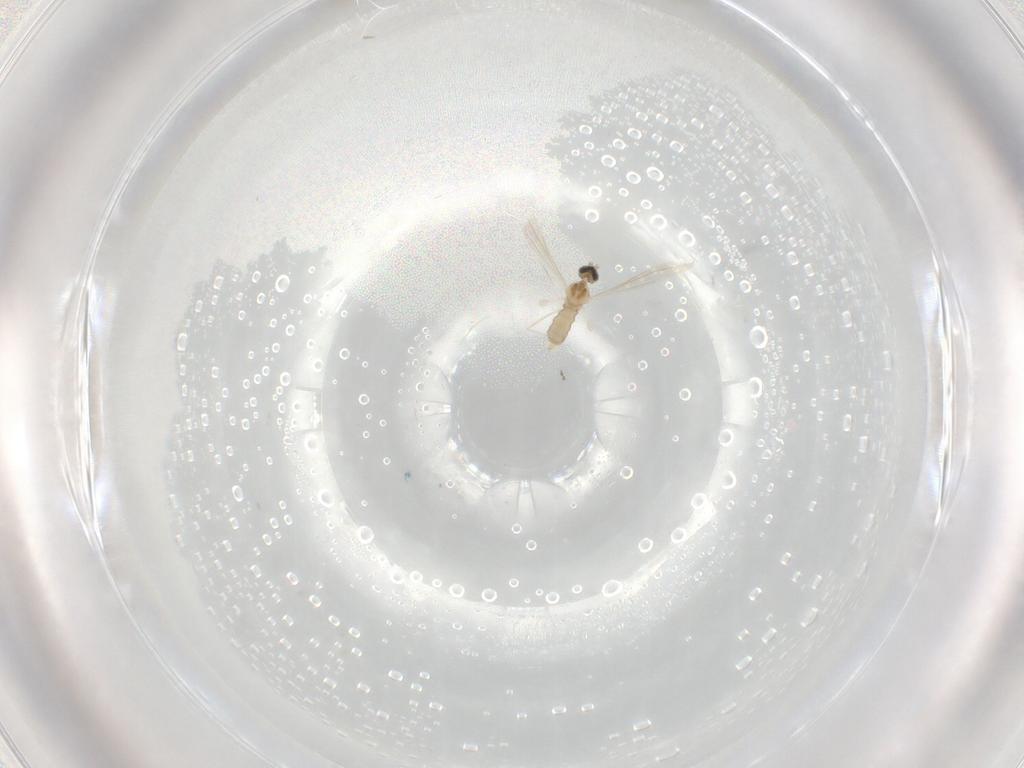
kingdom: Animalia
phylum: Arthropoda
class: Insecta
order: Diptera
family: Cecidomyiidae
